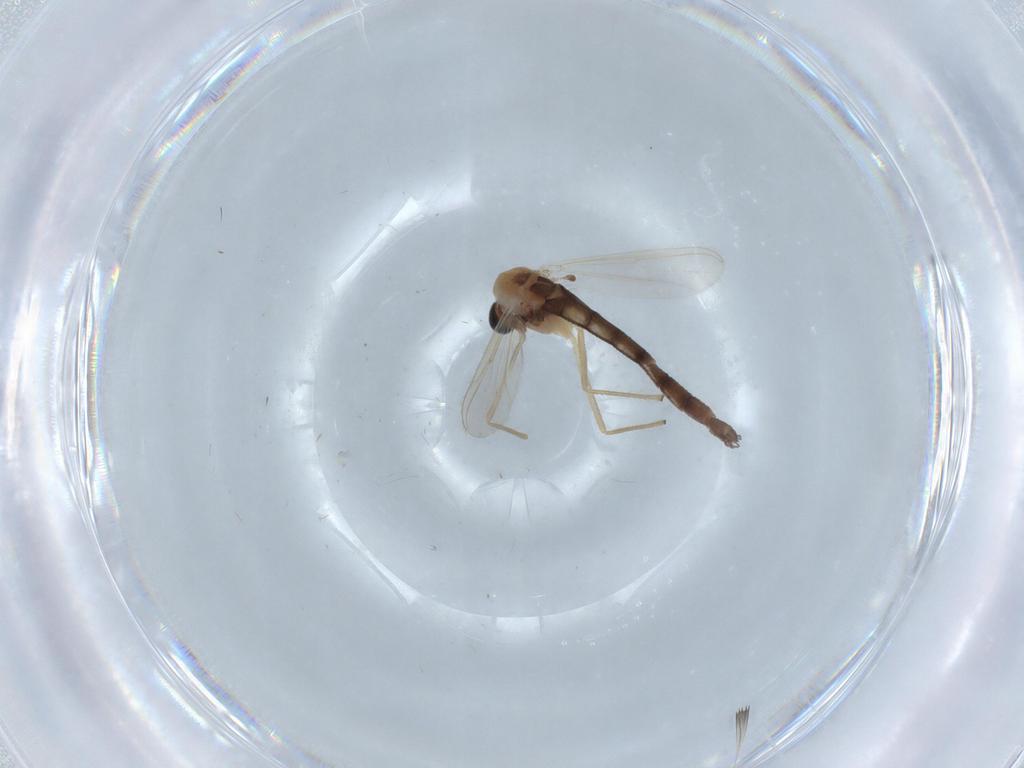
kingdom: Animalia
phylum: Arthropoda
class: Insecta
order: Diptera
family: Chironomidae
